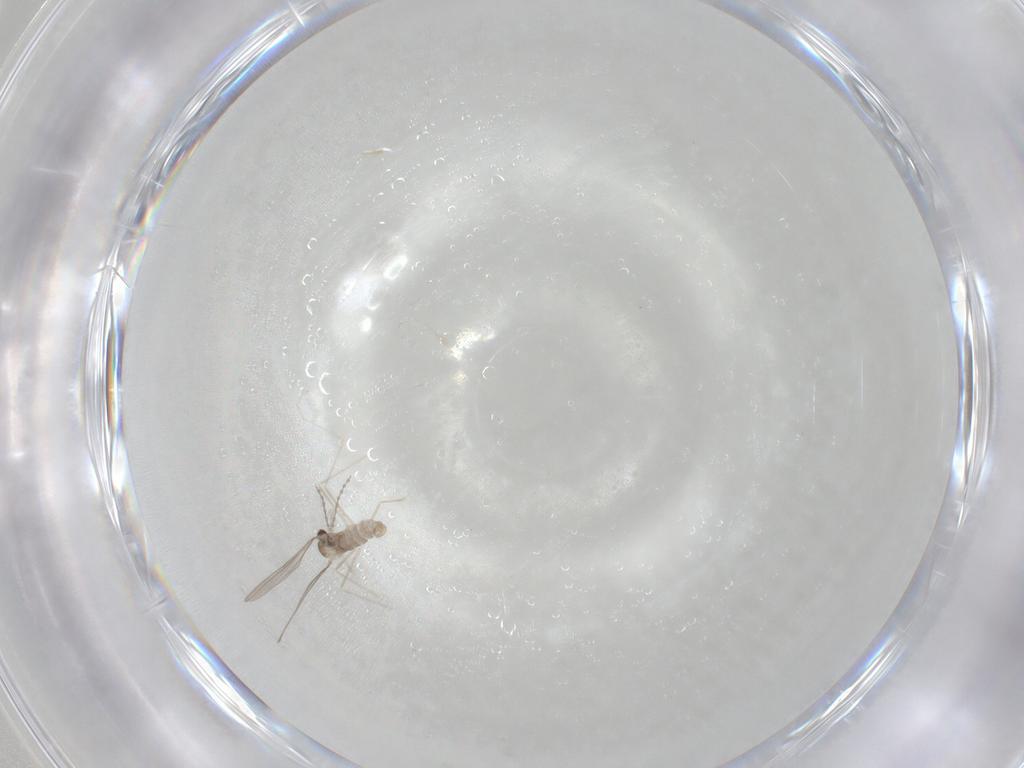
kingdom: Animalia
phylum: Arthropoda
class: Insecta
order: Diptera
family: Cecidomyiidae
